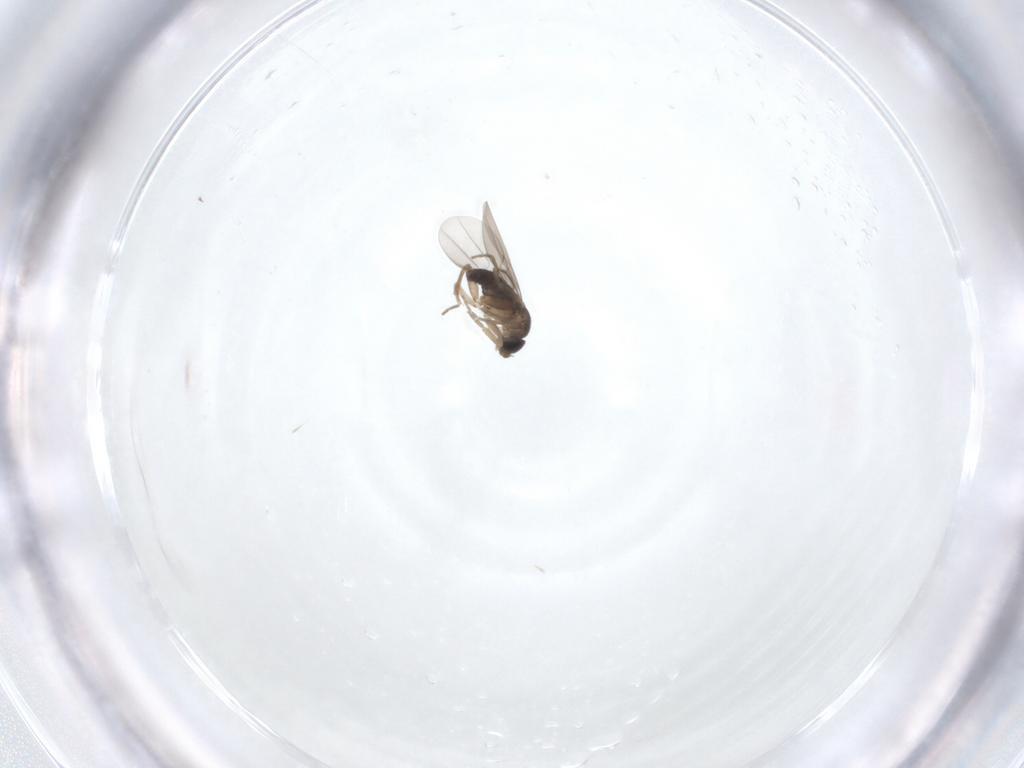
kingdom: Animalia
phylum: Arthropoda
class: Insecta
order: Diptera
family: Phoridae
